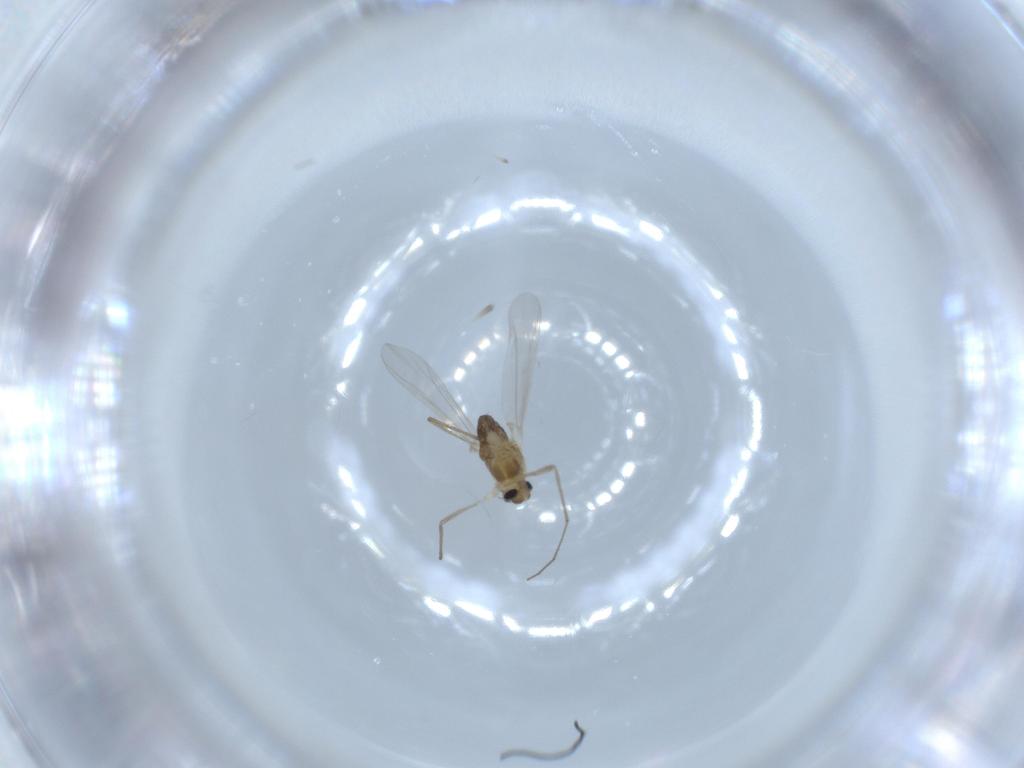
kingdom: Animalia
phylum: Arthropoda
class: Insecta
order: Diptera
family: Chironomidae
